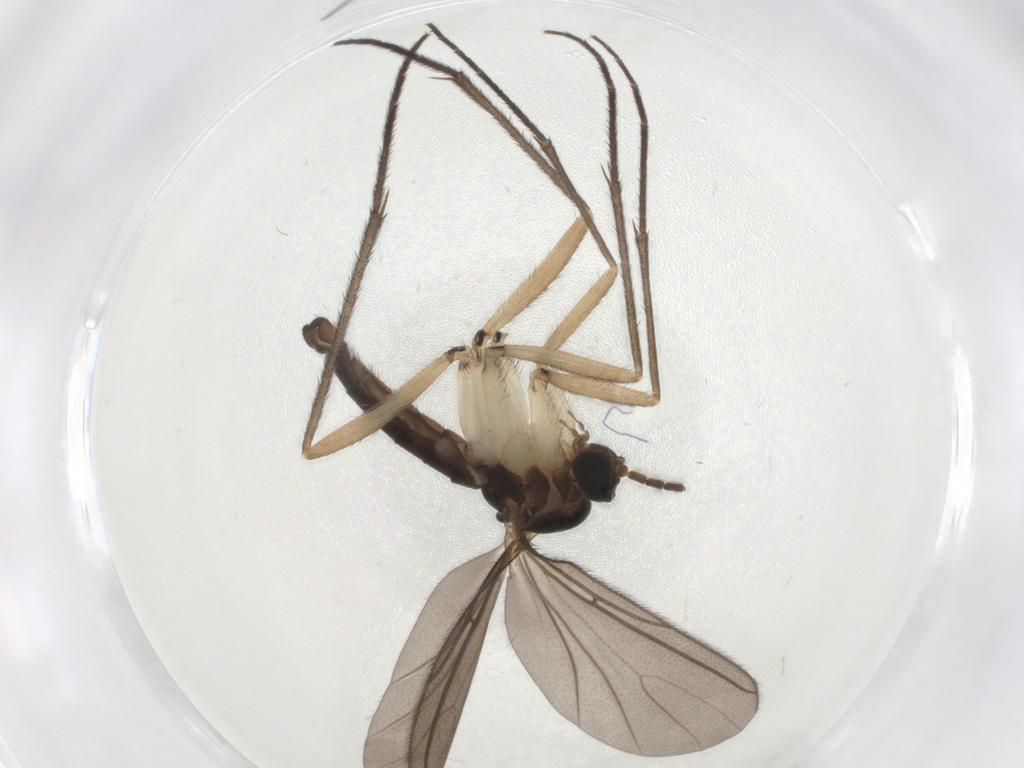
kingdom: Animalia
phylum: Arthropoda
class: Insecta
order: Diptera
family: Sciaridae
